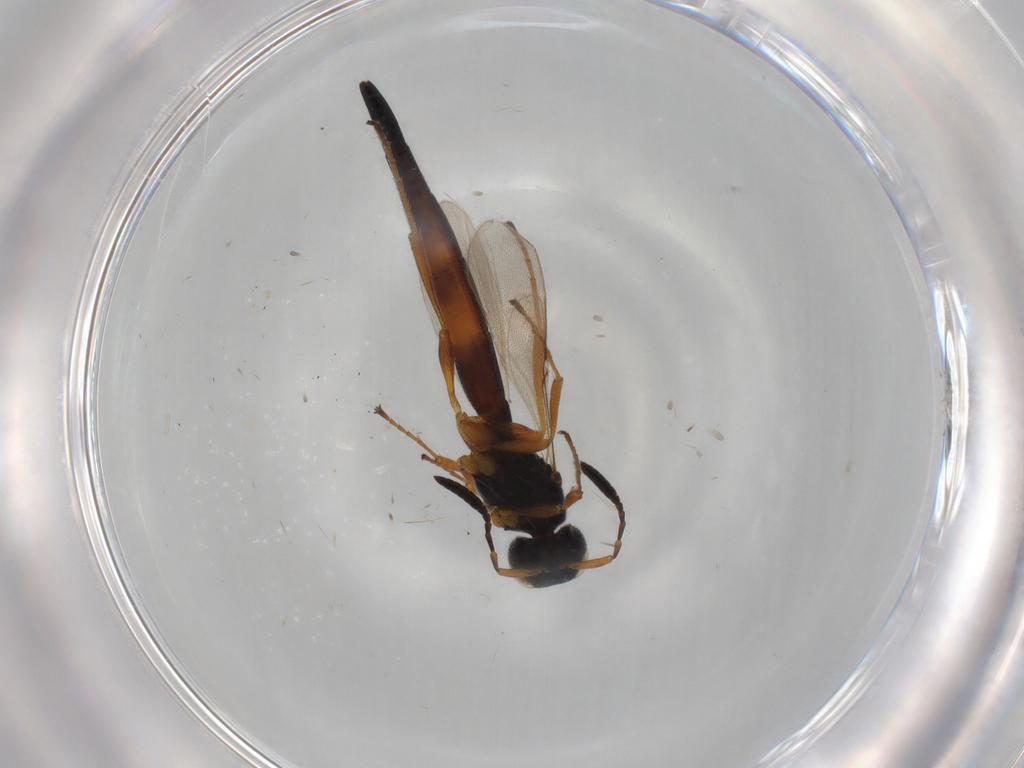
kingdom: Animalia
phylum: Arthropoda
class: Insecta
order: Hymenoptera
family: Scelionidae
